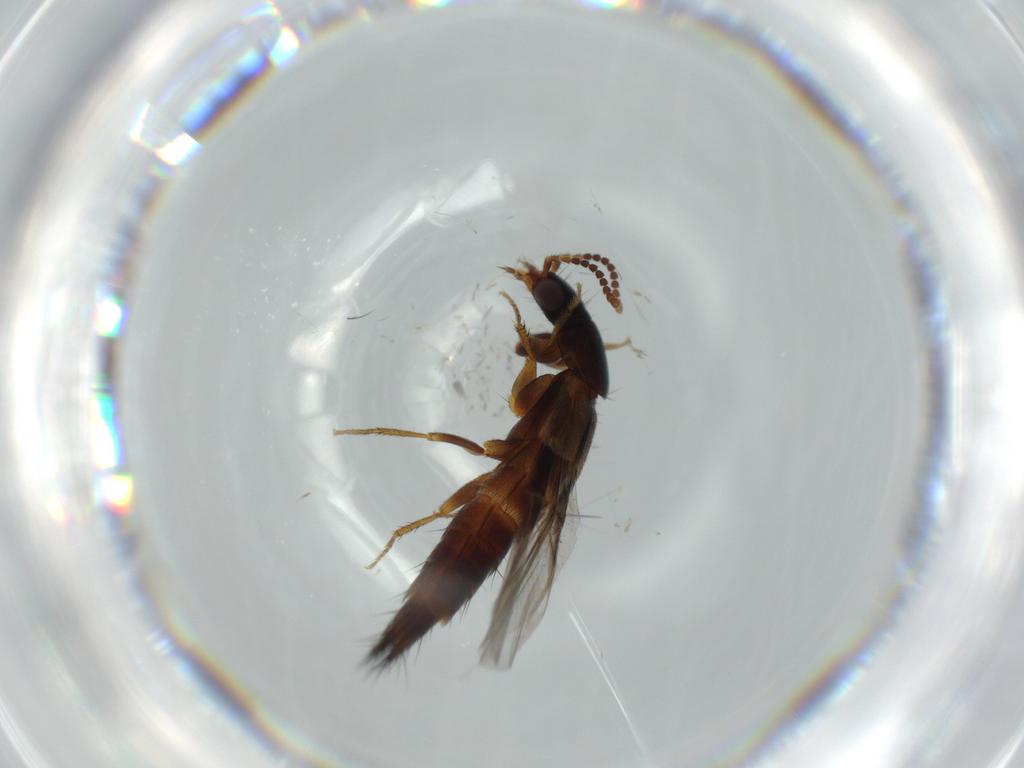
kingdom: Animalia
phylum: Arthropoda
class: Insecta
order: Coleoptera
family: Staphylinidae
